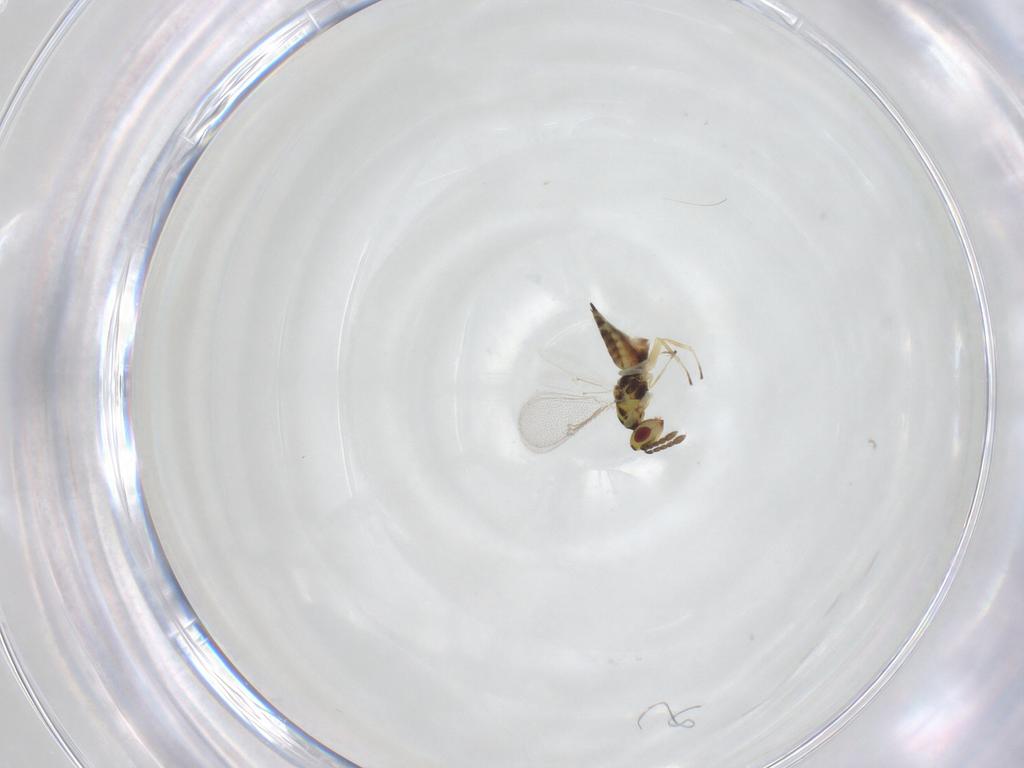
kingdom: Animalia
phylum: Arthropoda
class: Insecta
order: Hymenoptera
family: Eulophidae
